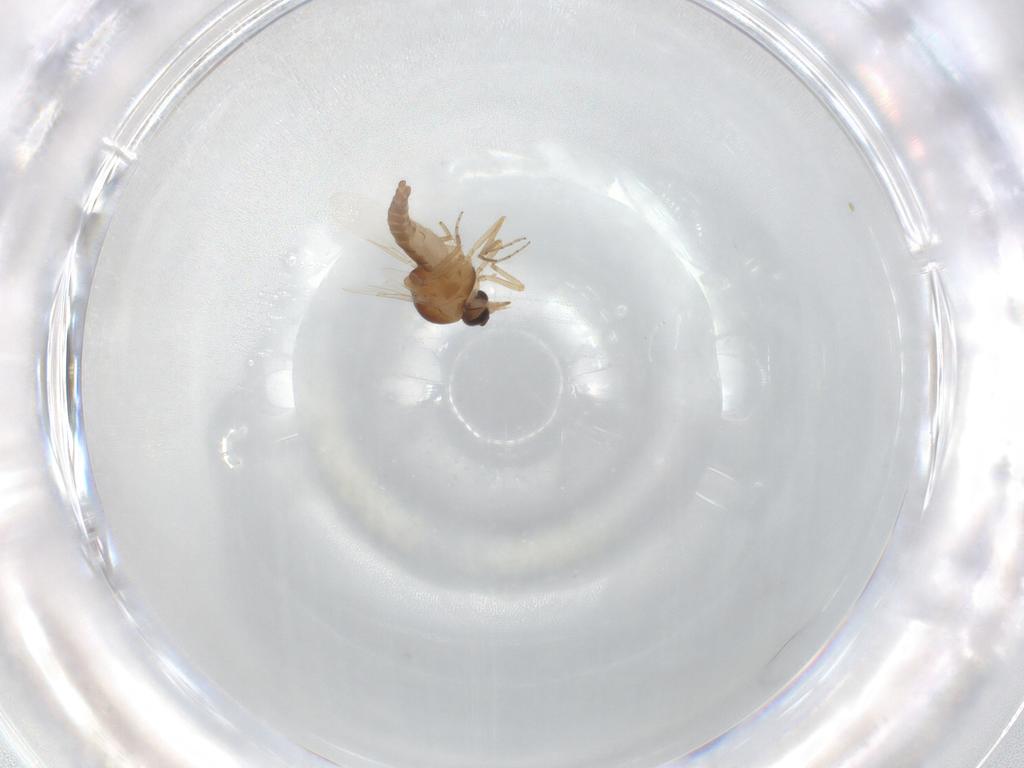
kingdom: Animalia
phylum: Arthropoda
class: Insecta
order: Diptera
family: Ceratopogonidae
